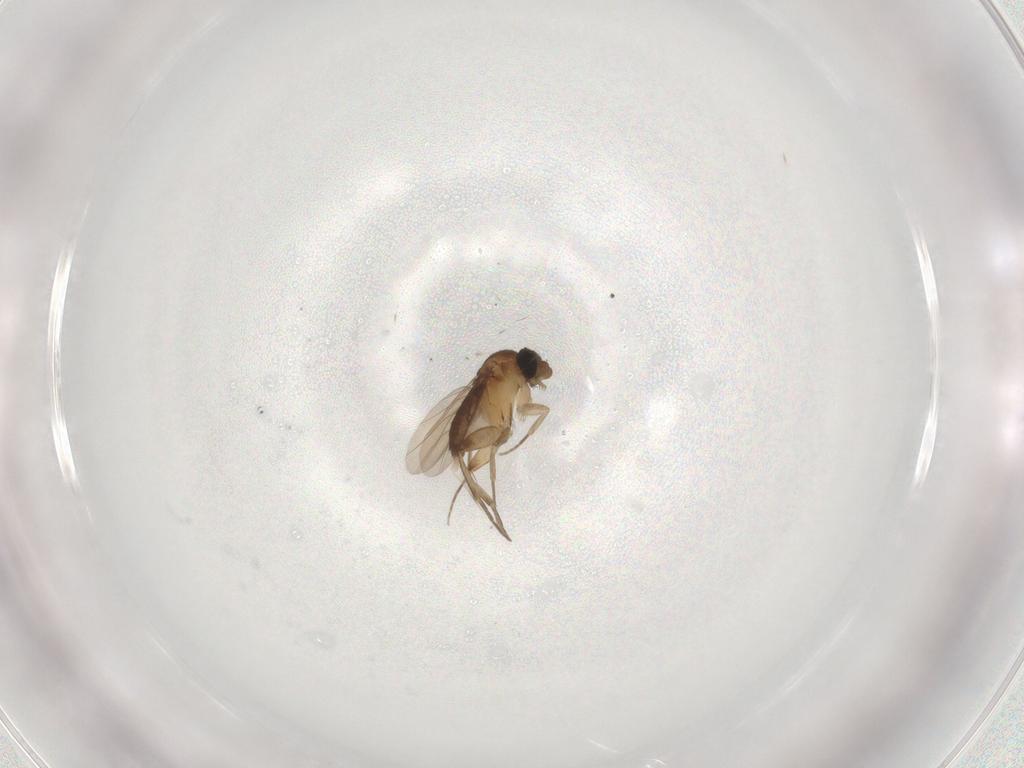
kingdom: Animalia
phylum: Arthropoda
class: Insecta
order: Diptera
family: Phoridae
